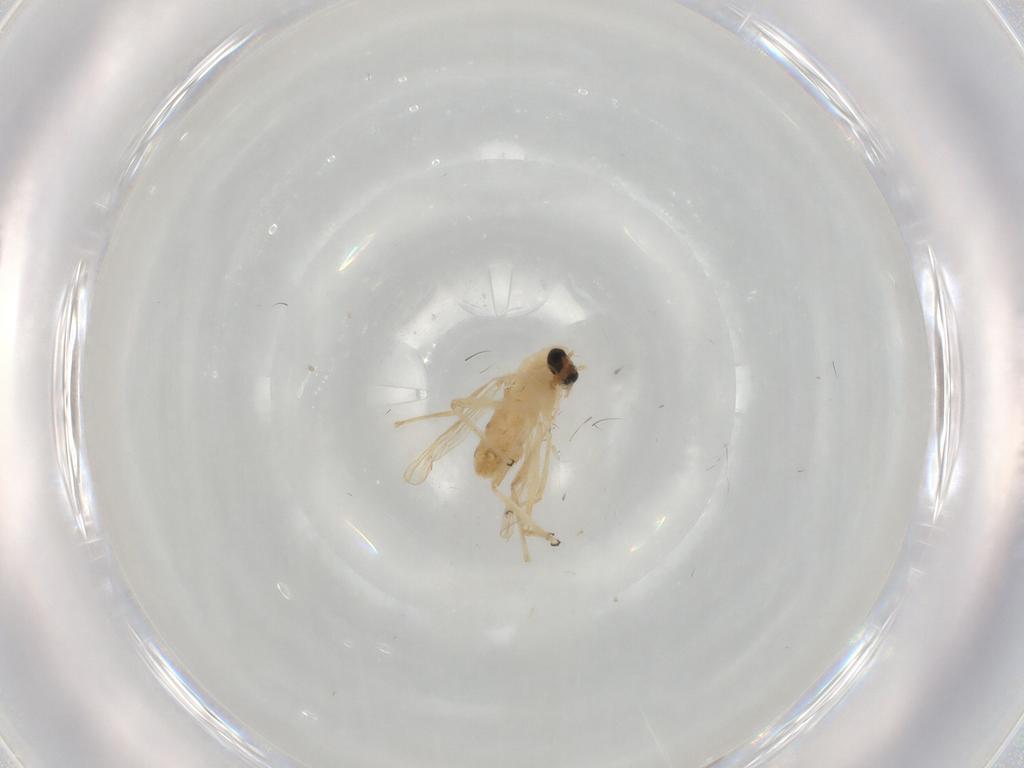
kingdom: Animalia
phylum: Arthropoda
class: Insecta
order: Diptera
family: Chironomidae
